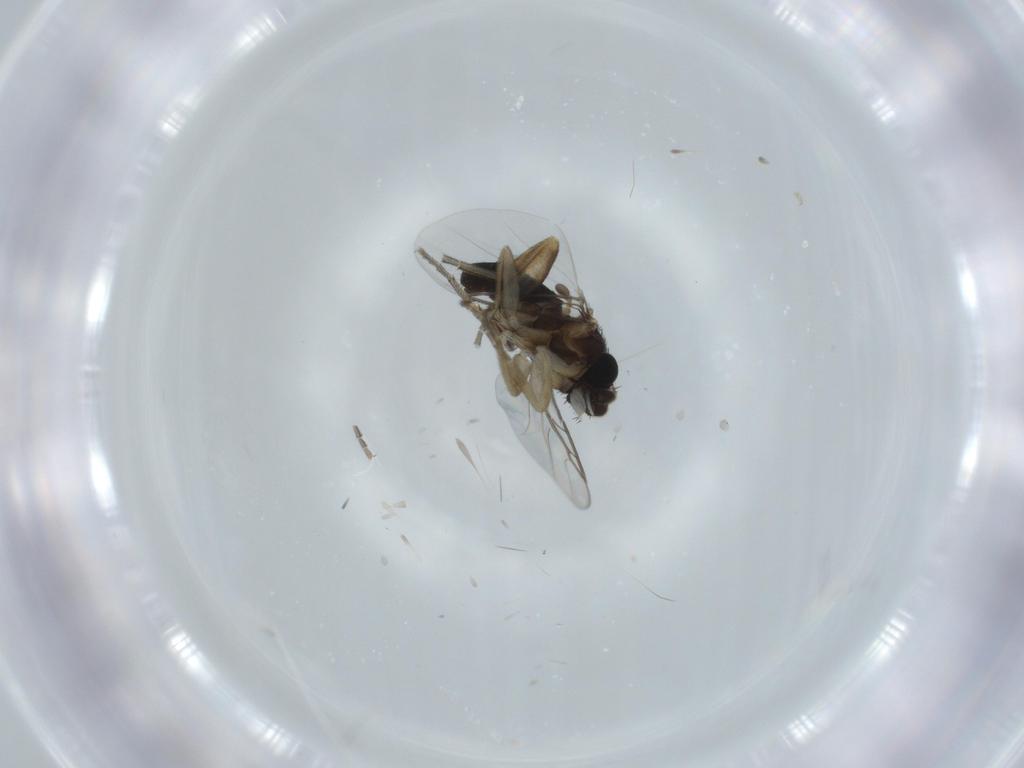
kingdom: Animalia
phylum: Arthropoda
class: Insecta
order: Diptera
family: Phoridae
